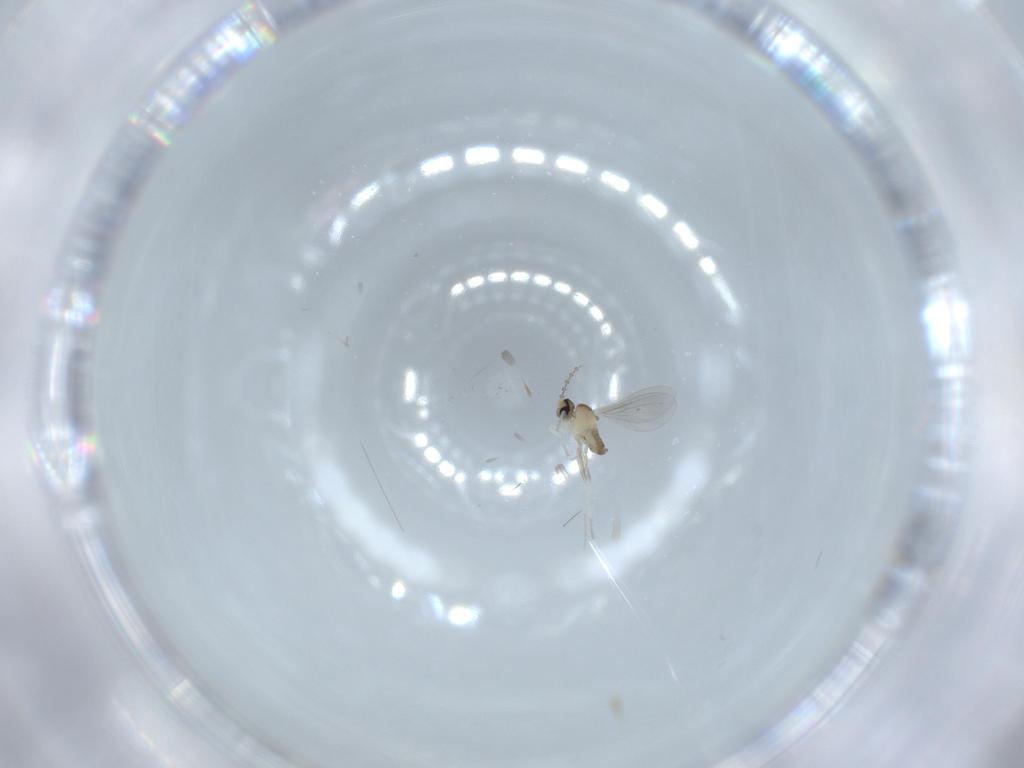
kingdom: Animalia
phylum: Arthropoda
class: Insecta
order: Diptera
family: Cecidomyiidae
